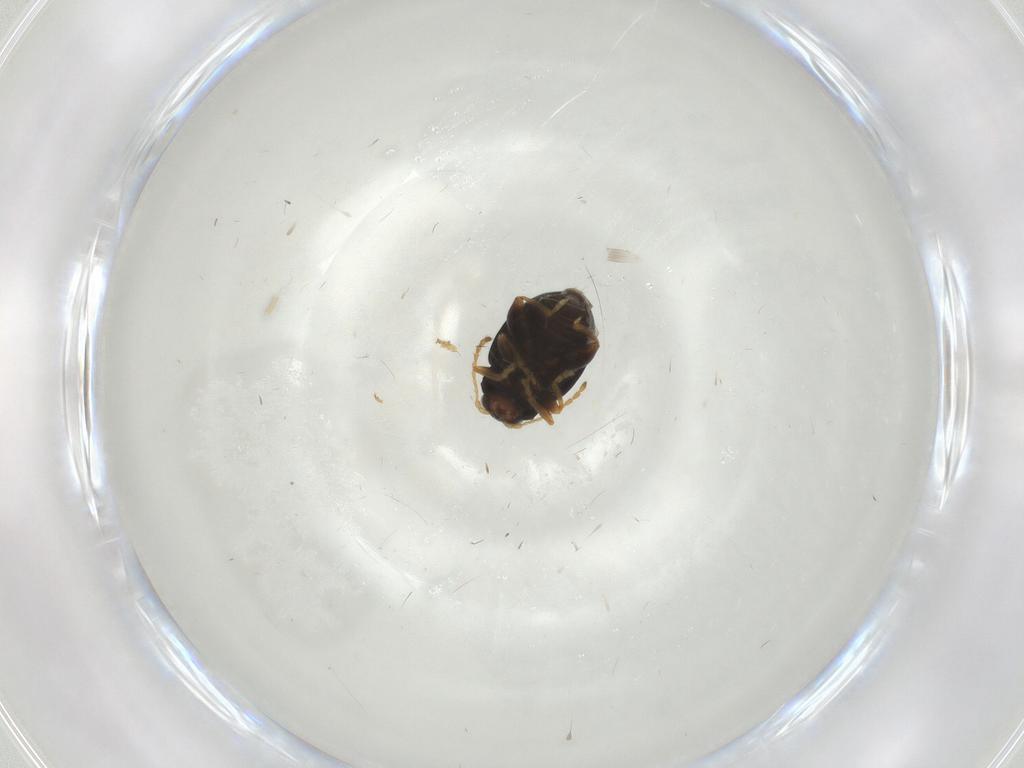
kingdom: Animalia
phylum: Arthropoda
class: Insecta
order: Coleoptera
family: Chrysomelidae
